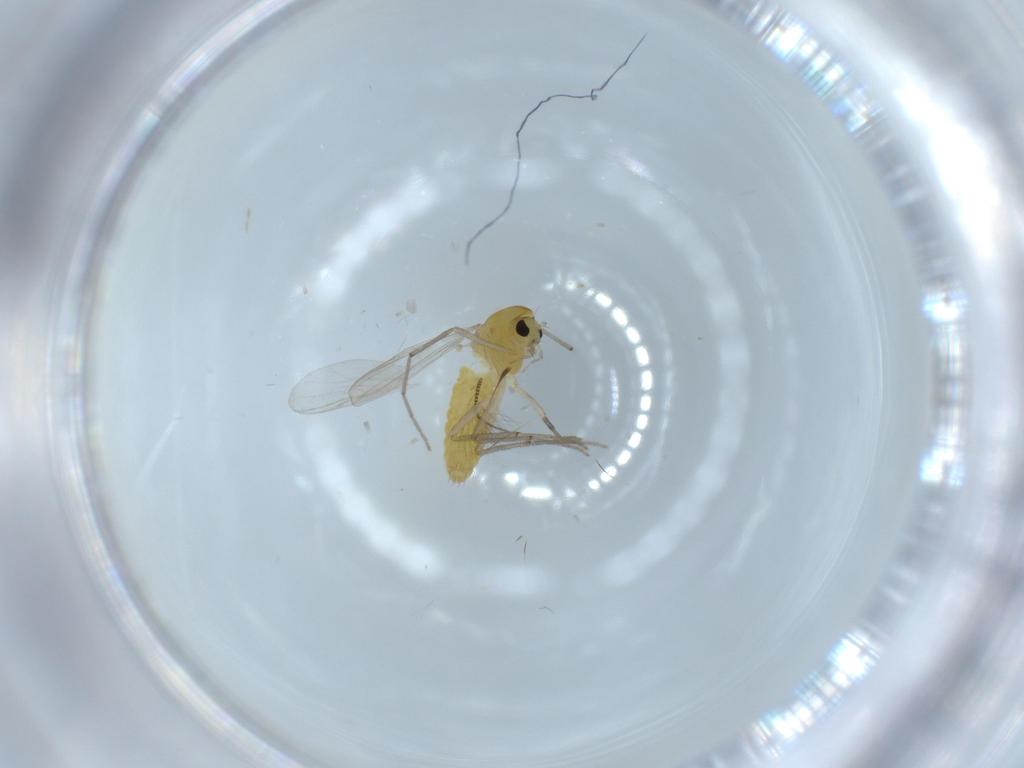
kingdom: Animalia
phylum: Arthropoda
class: Insecta
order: Diptera
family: Chironomidae
